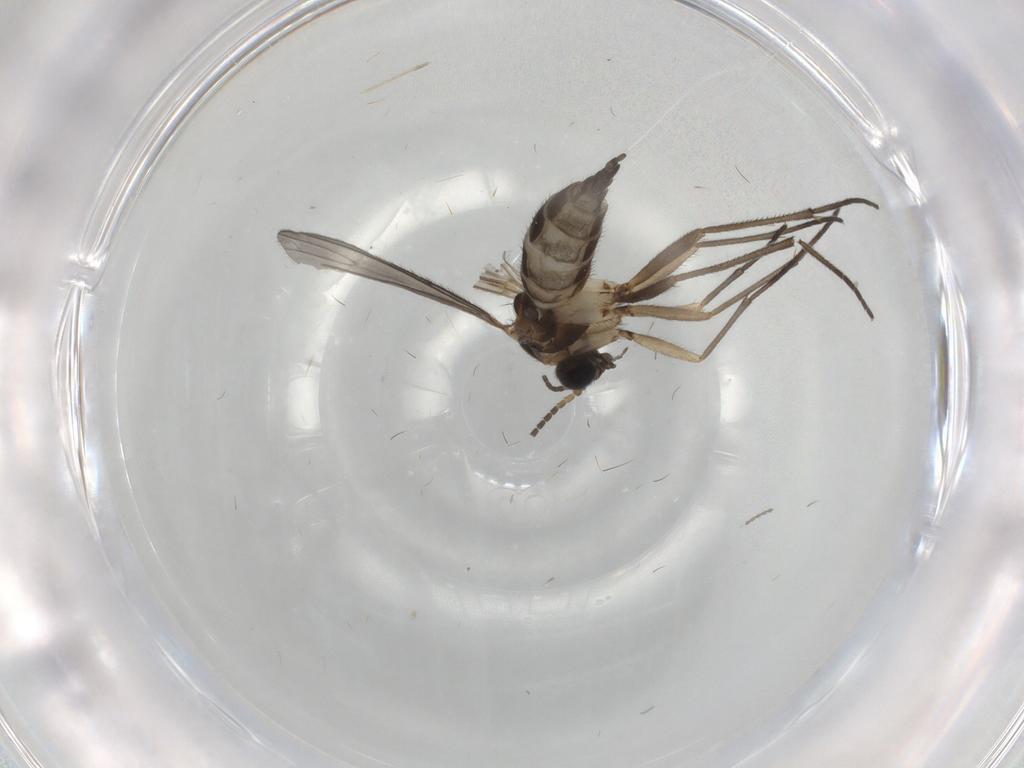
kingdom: Animalia
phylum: Arthropoda
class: Insecta
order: Diptera
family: Sciaridae
